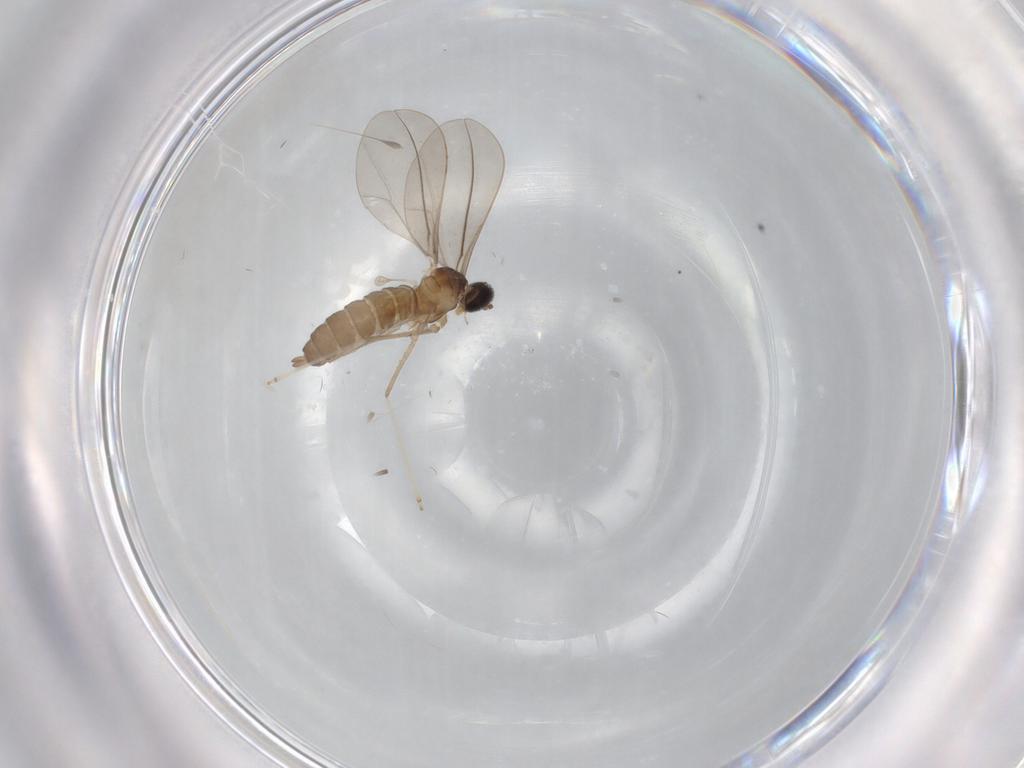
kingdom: Animalia
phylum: Arthropoda
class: Insecta
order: Diptera
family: Cecidomyiidae
